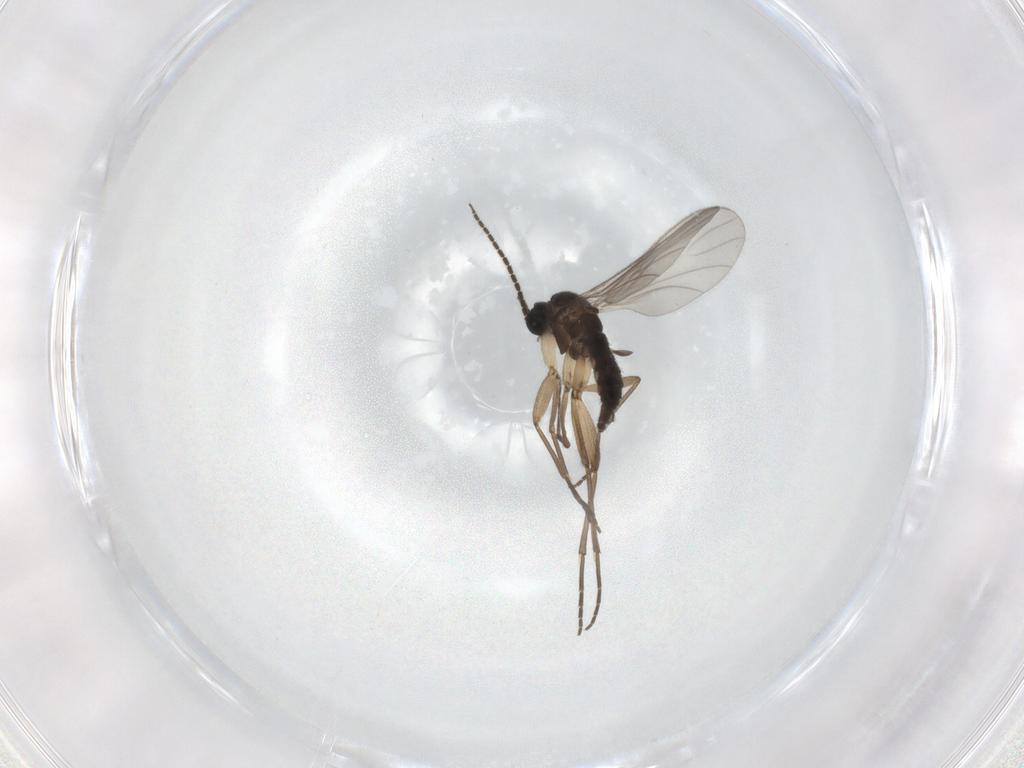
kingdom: Animalia
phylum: Arthropoda
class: Insecta
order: Diptera
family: Sciaridae
